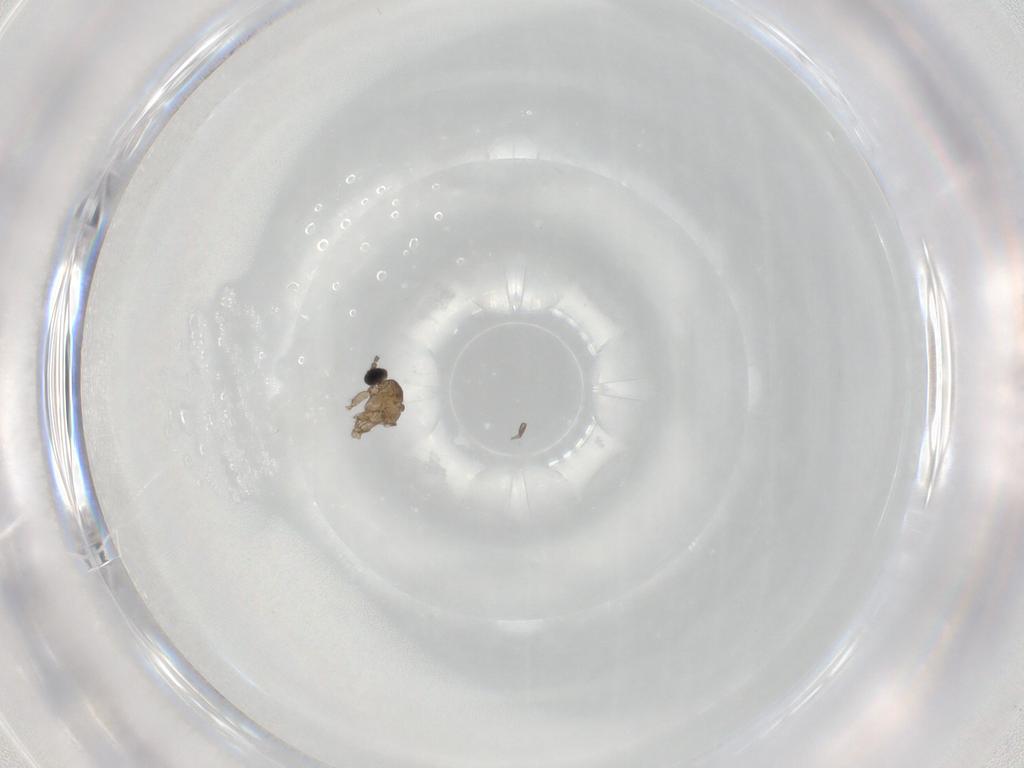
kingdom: Animalia
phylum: Arthropoda
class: Insecta
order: Diptera
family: Sciaridae
